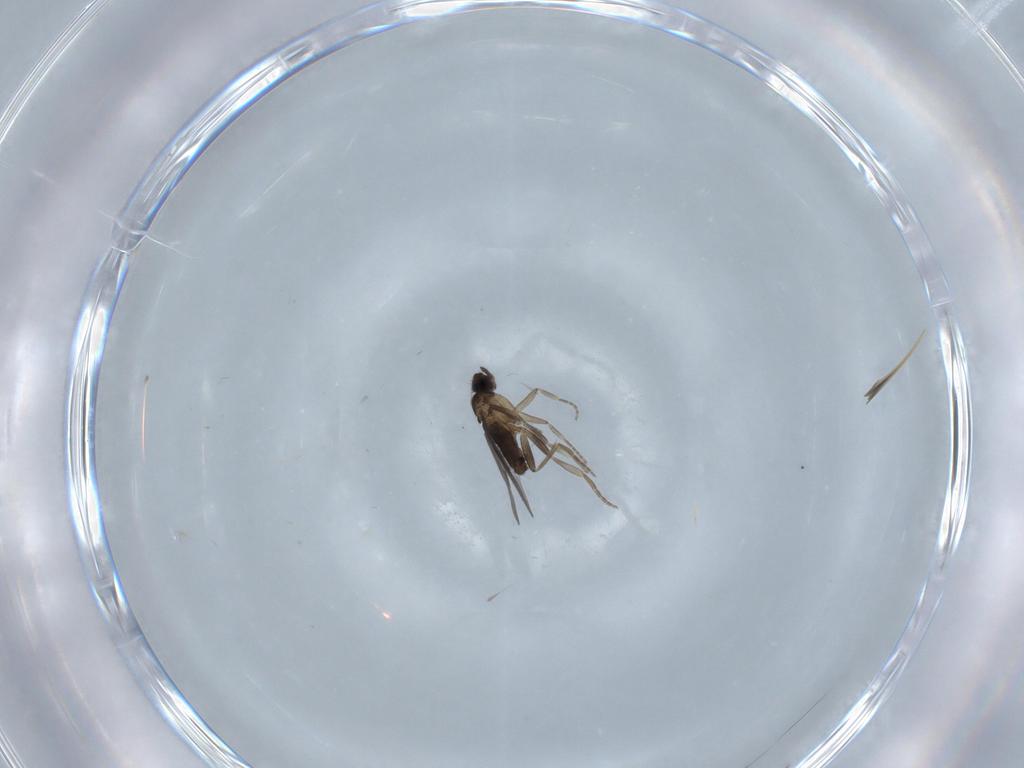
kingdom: Animalia
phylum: Arthropoda
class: Insecta
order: Diptera
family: Chironomidae
